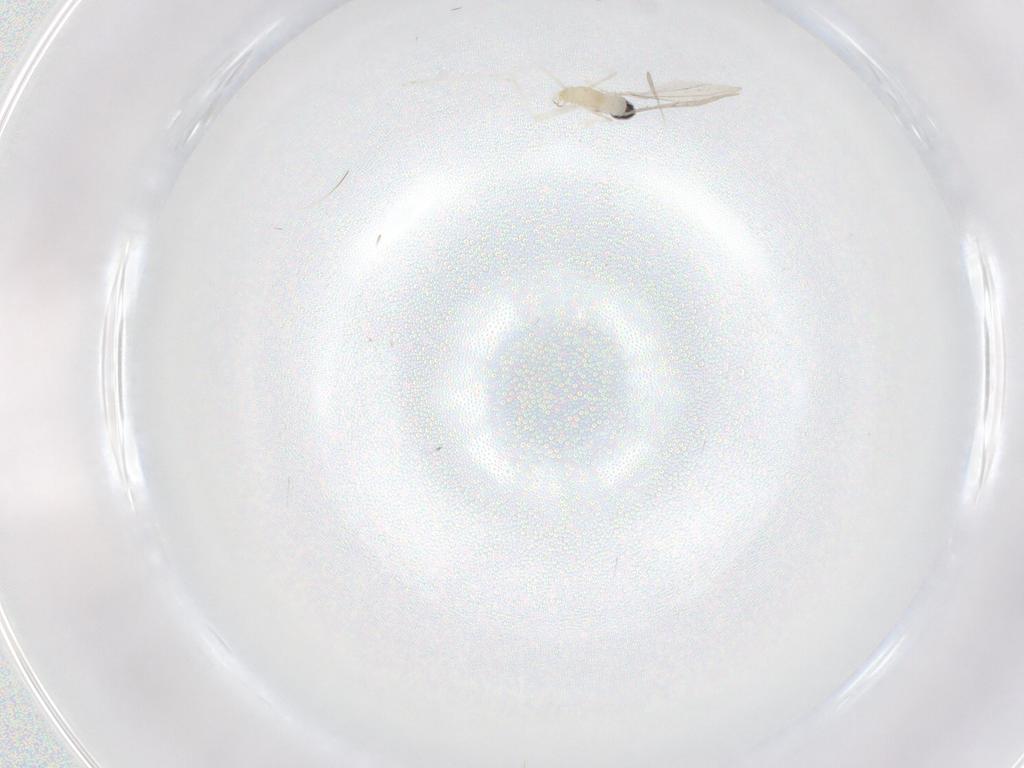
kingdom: Animalia
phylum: Arthropoda
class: Insecta
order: Diptera
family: Cecidomyiidae
